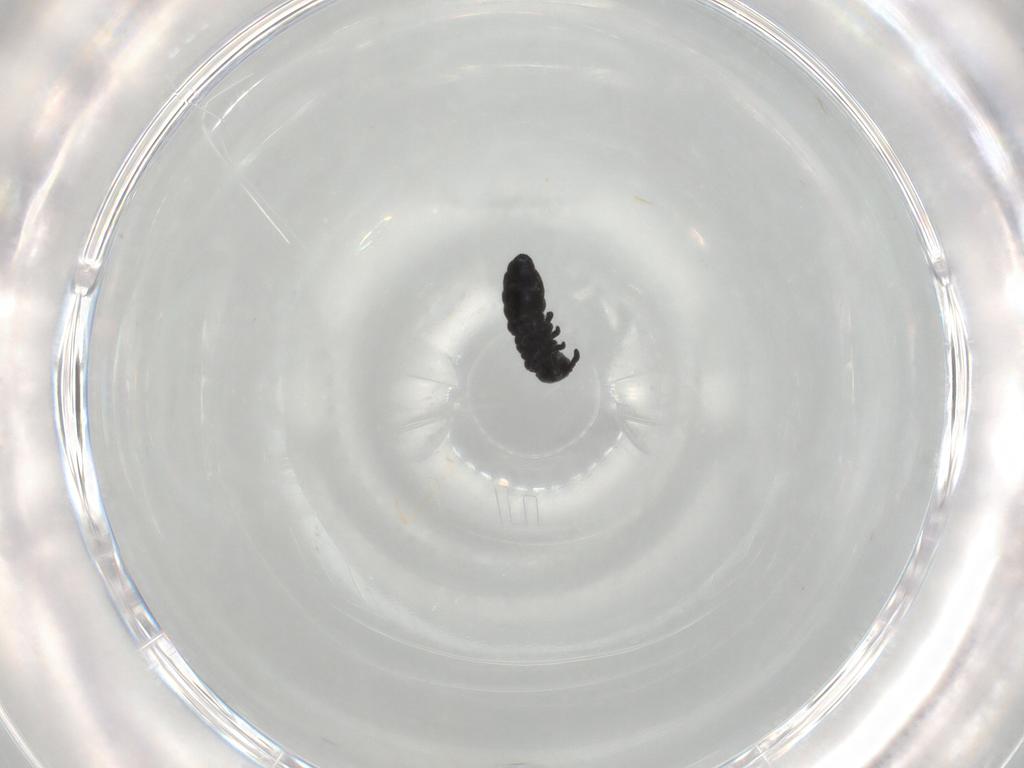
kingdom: Animalia
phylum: Arthropoda
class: Collembola
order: Poduromorpha
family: Hypogastruridae
